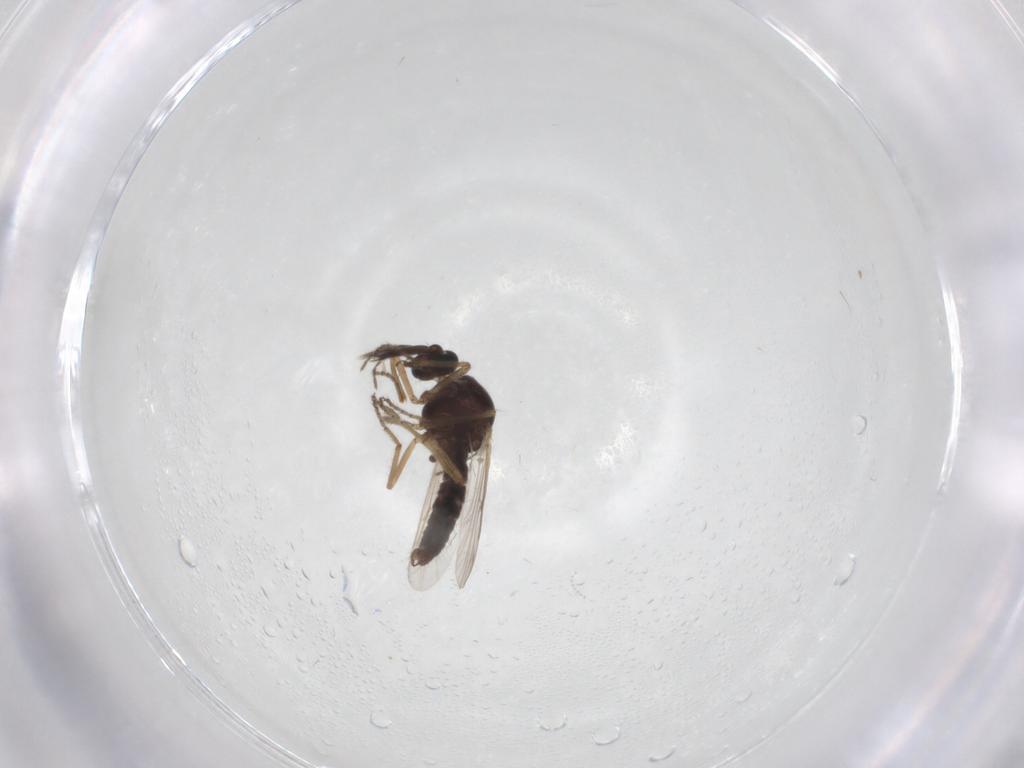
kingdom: Animalia
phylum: Arthropoda
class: Insecta
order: Diptera
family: Ceratopogonidae
